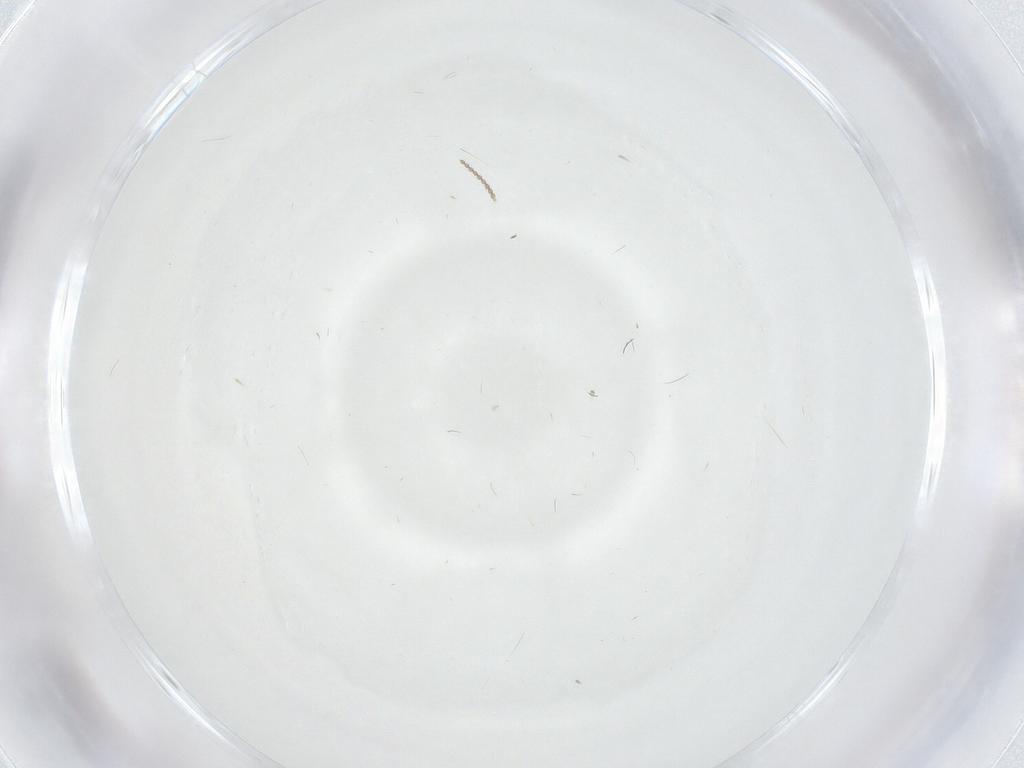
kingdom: Animalia
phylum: Arthropoda
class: Insecta
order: Diptera
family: Cecidomyiidae
